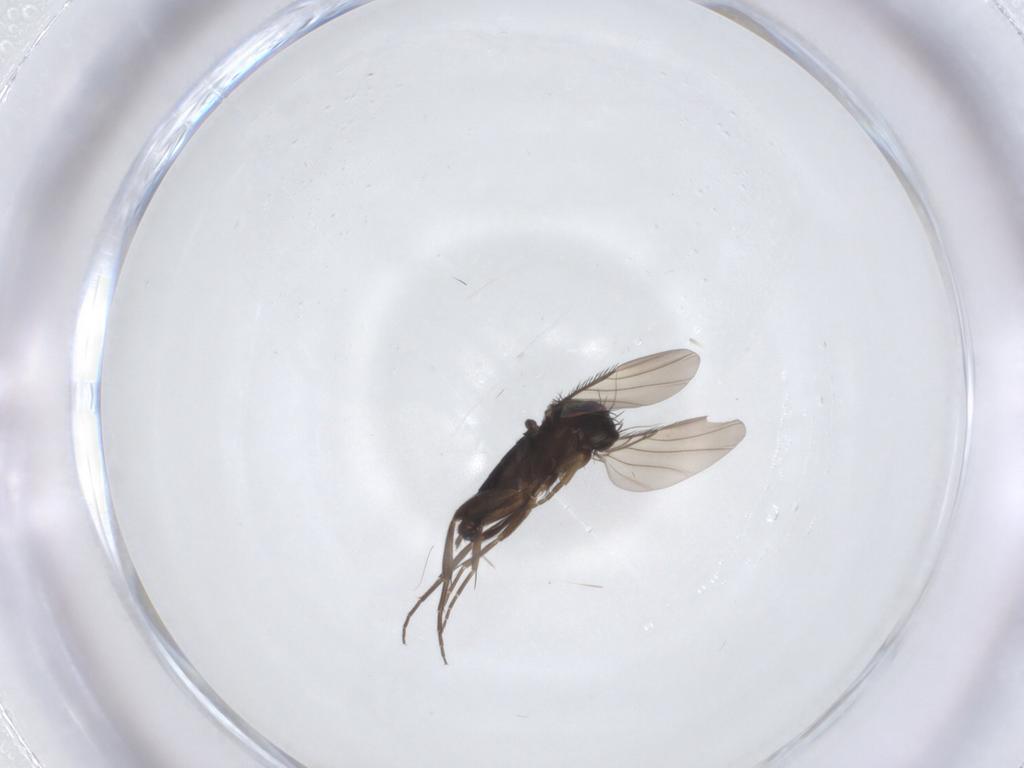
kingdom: Animalia
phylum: Arthropoda
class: Insecta
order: Diptera
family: Phoridae
